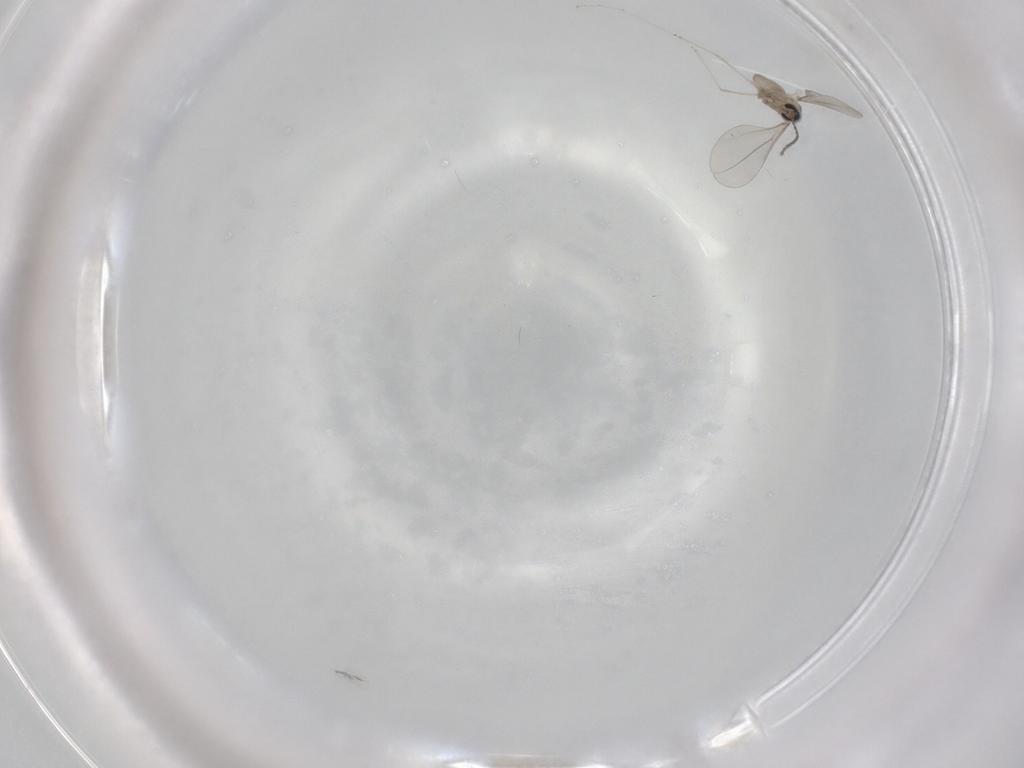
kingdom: Animalia
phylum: Arthropoda
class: Insecta
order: Diptera
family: Cecidomyiidae
